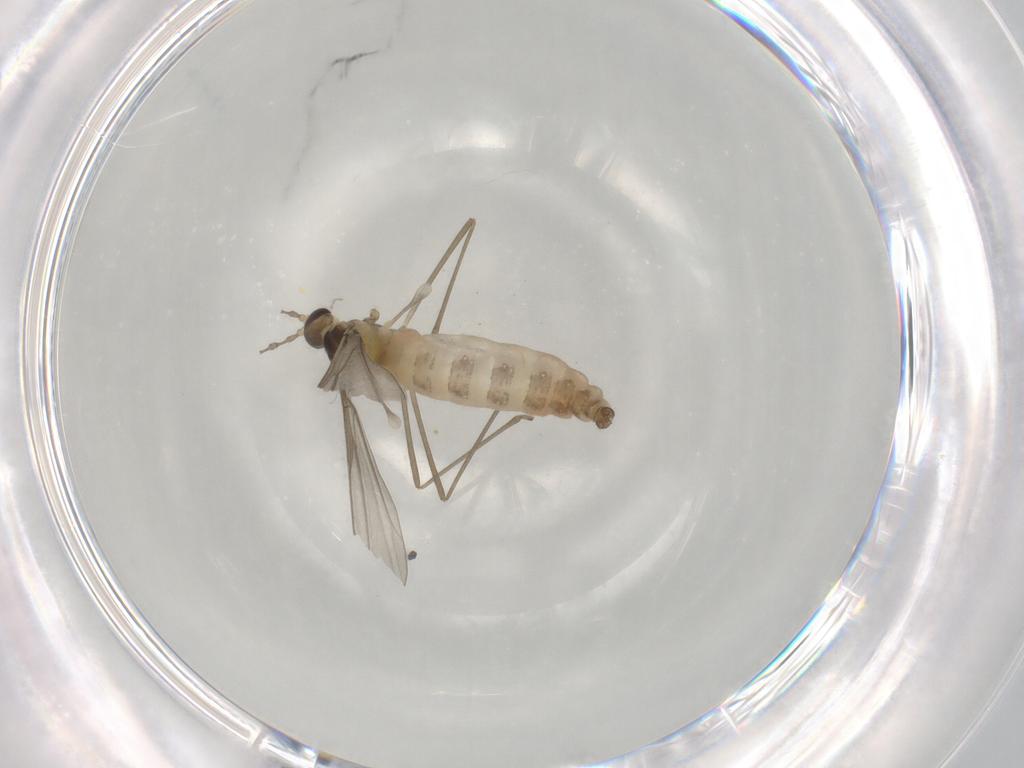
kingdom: Animalia
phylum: Arthropoda
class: Insecta
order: Diptera
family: Cecidomyiidae
